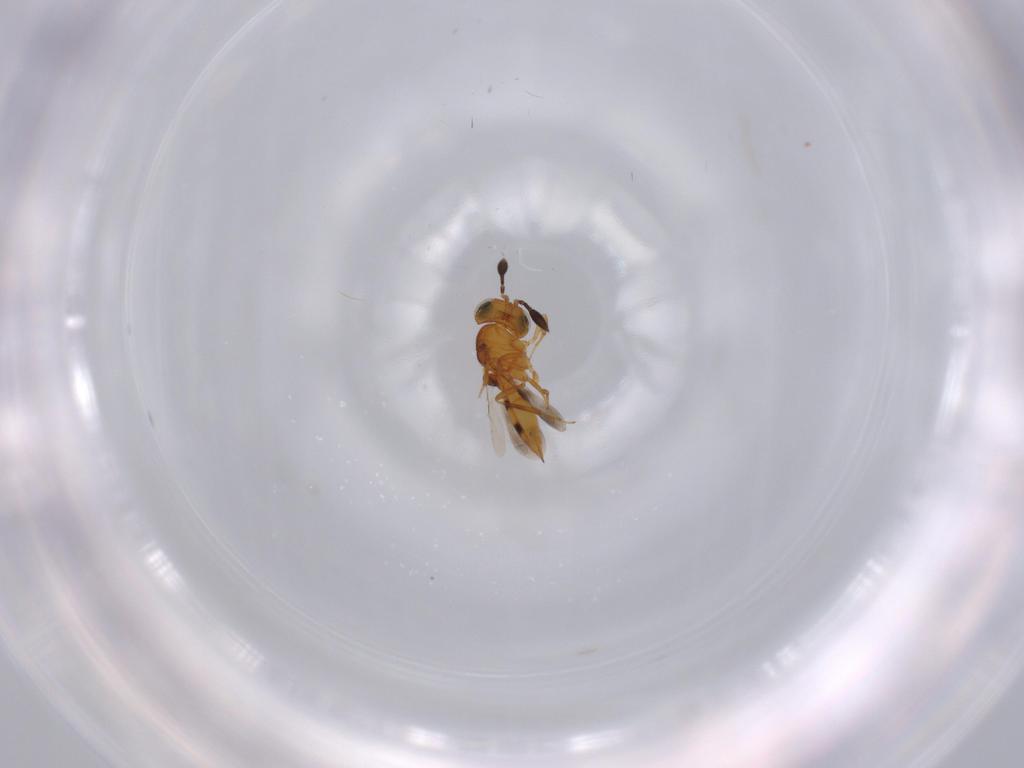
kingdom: Animalia
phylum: Arthropoda
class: Insecta
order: Hymenoptera
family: Scelionidae
